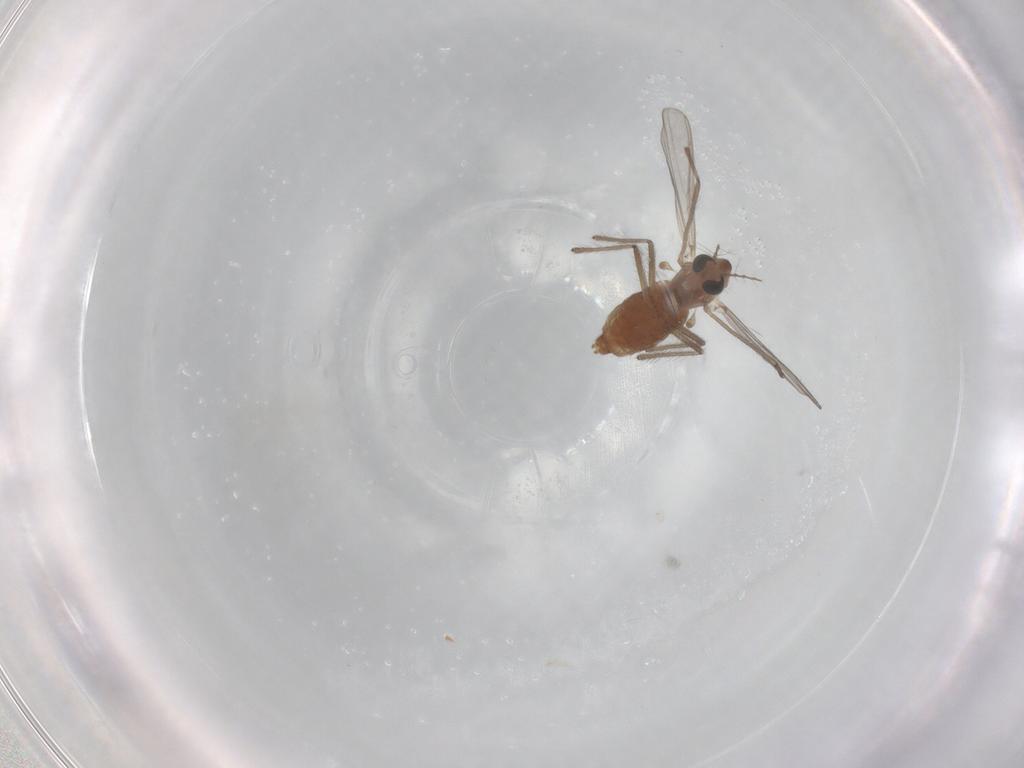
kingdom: Animalia
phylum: Arthropoda
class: Insecta
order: Diptera
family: Chironomidae
